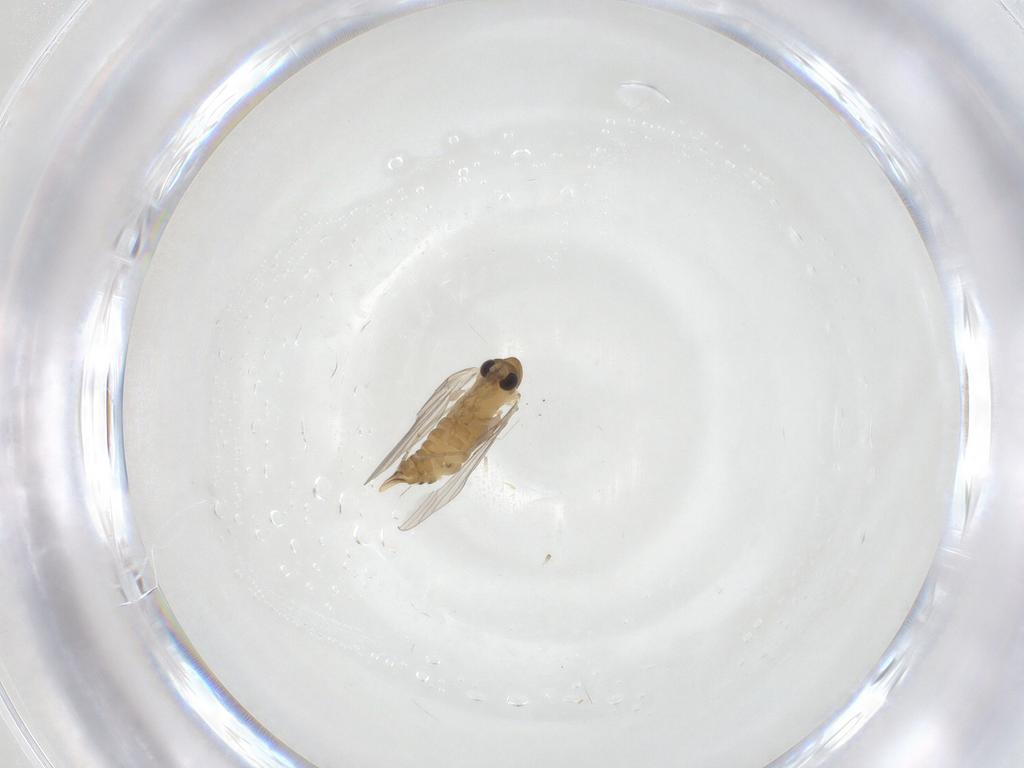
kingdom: Animalia
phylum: Arthropoda
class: Insecta
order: Diptera
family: Psychodidae
